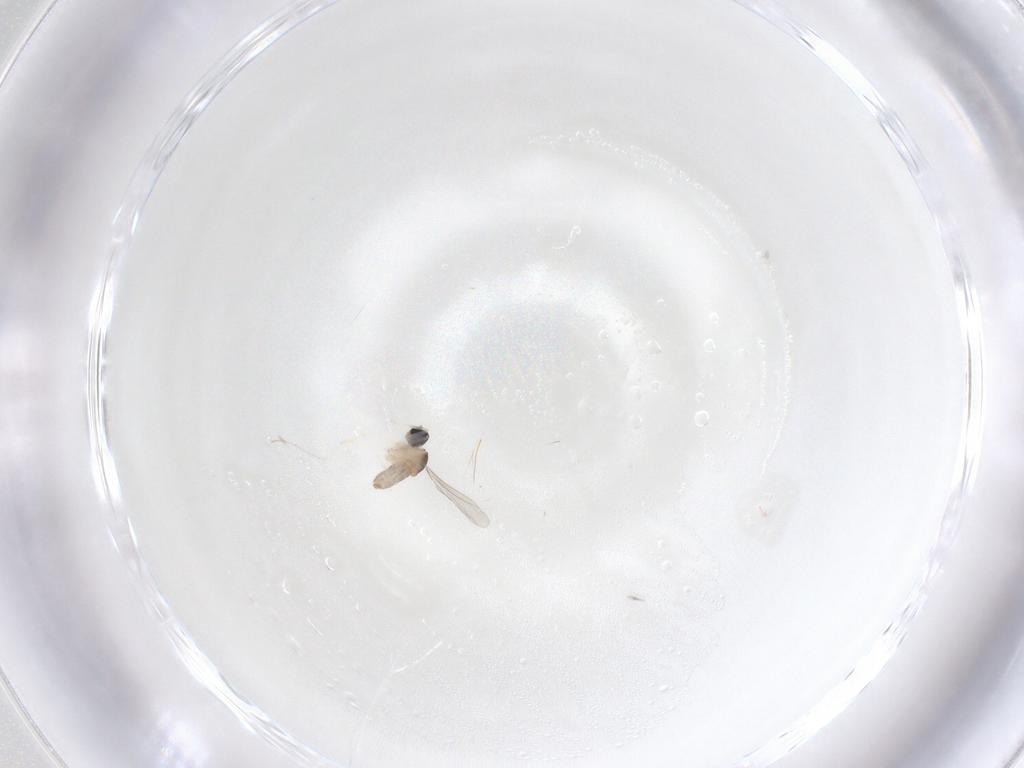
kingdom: Animalia
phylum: Arthropoda
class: Insecta
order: Diptera
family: Cecidomyiidae
